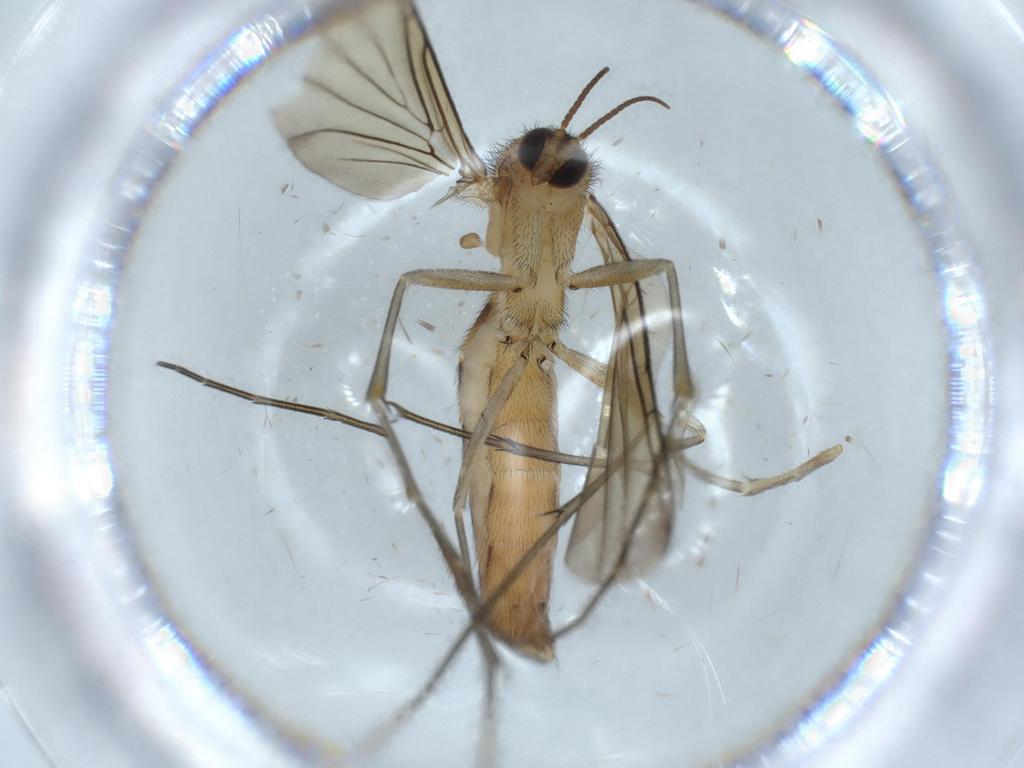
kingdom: Animalia
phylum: Arthropoda
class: Insecta
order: Diptera
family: Keroplatidae
